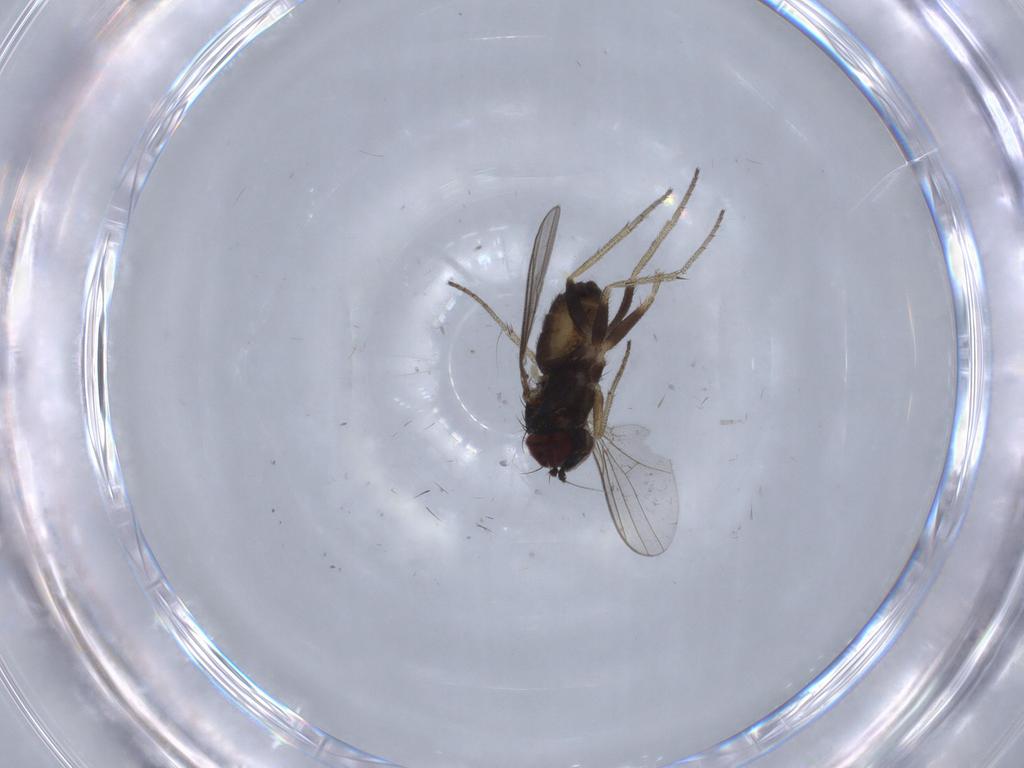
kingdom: Animalia
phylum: Arthropoda
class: Insecta
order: Diptera
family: Dolichopodidae
